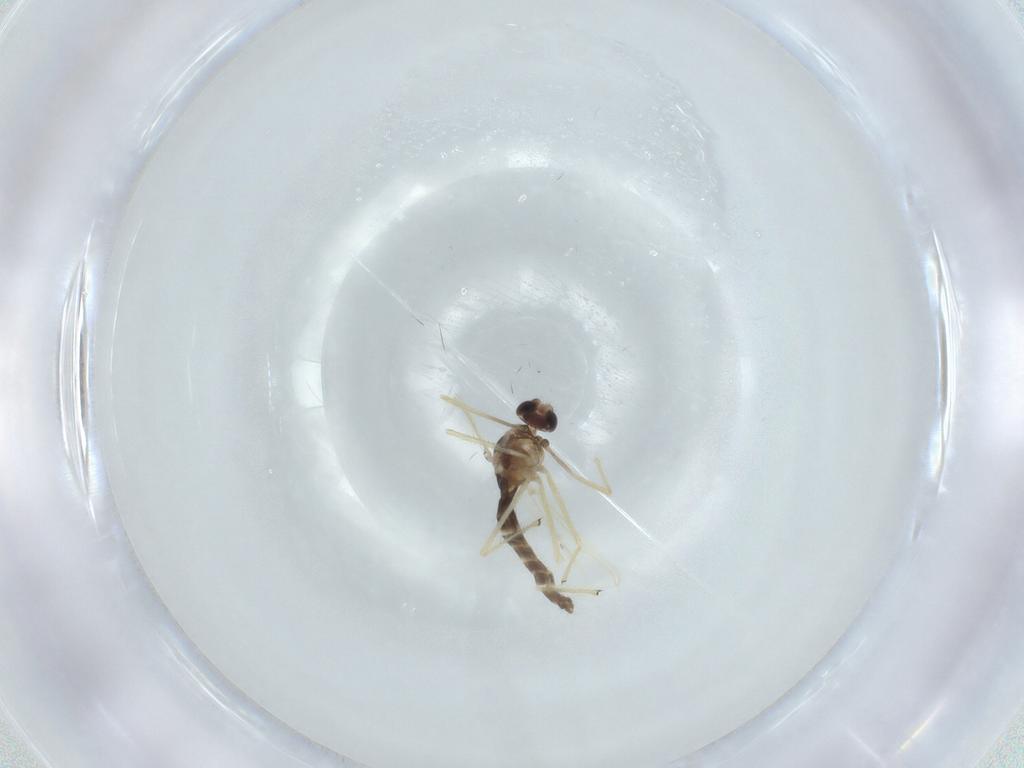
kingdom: Animalia
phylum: Arthropoda
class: Insecta
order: Diptera
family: Chironomidae
